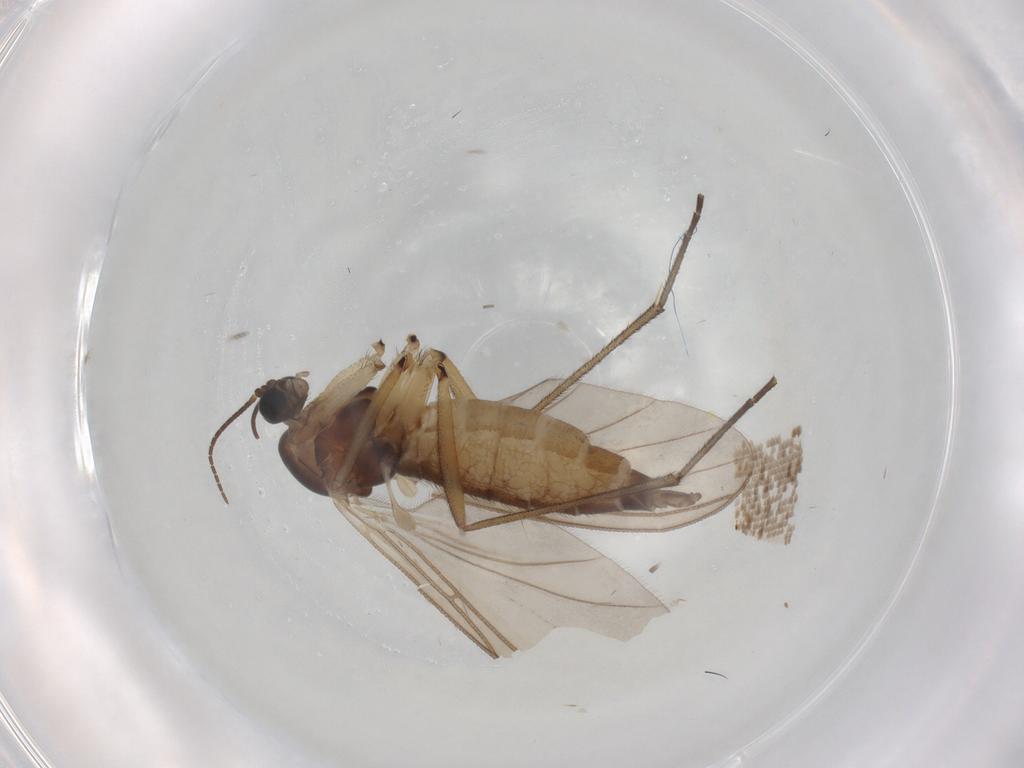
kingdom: Animalia
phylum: Arthropoda
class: Insecta
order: Diptera
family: Sciaridae
